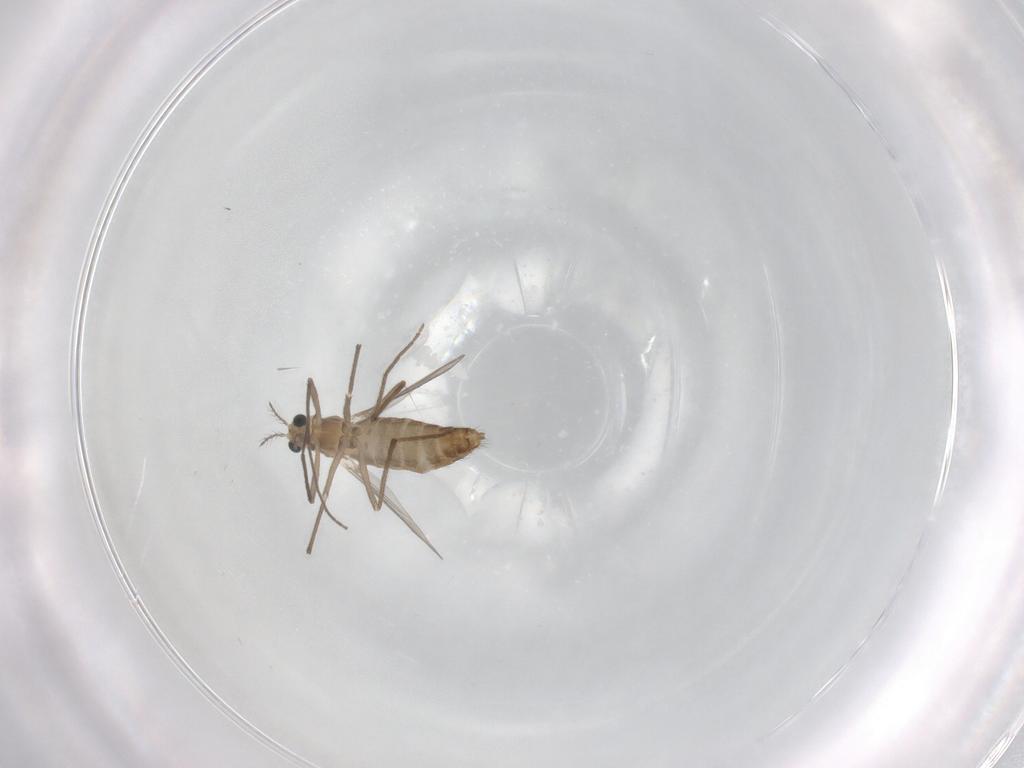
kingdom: Animalia
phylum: Arthropoda
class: Insecta
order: Diptera
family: Chironomidae
